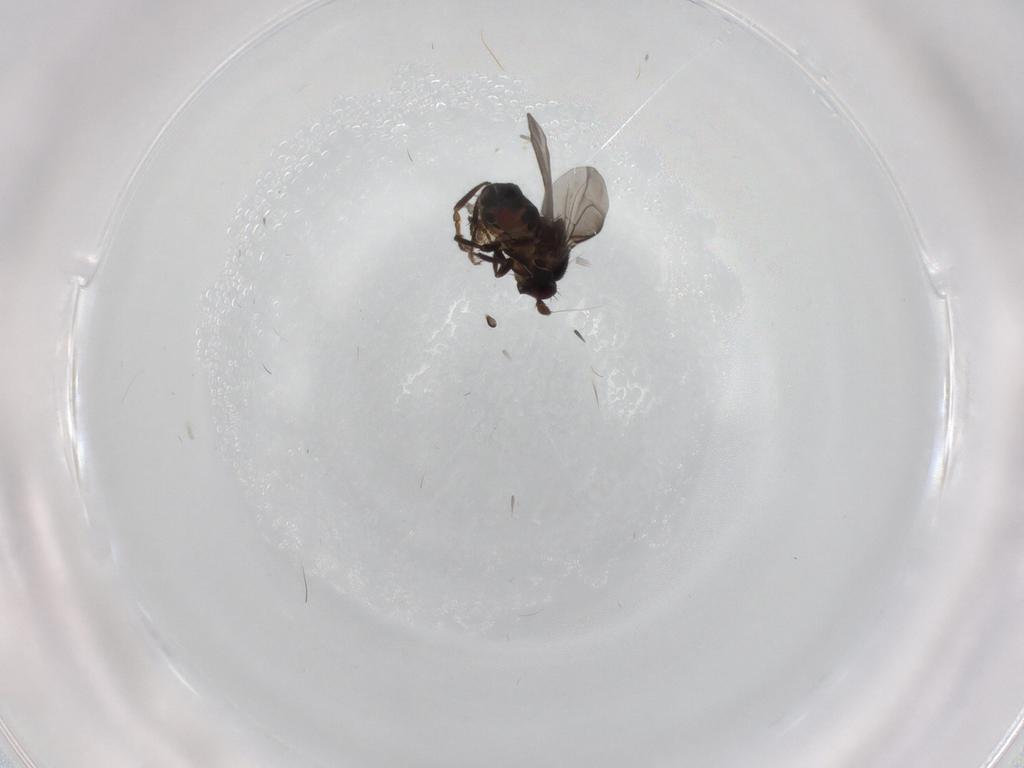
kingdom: Animalia
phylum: Arthropoda
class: Insecta
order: Diptera
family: Sphaeroceridae
